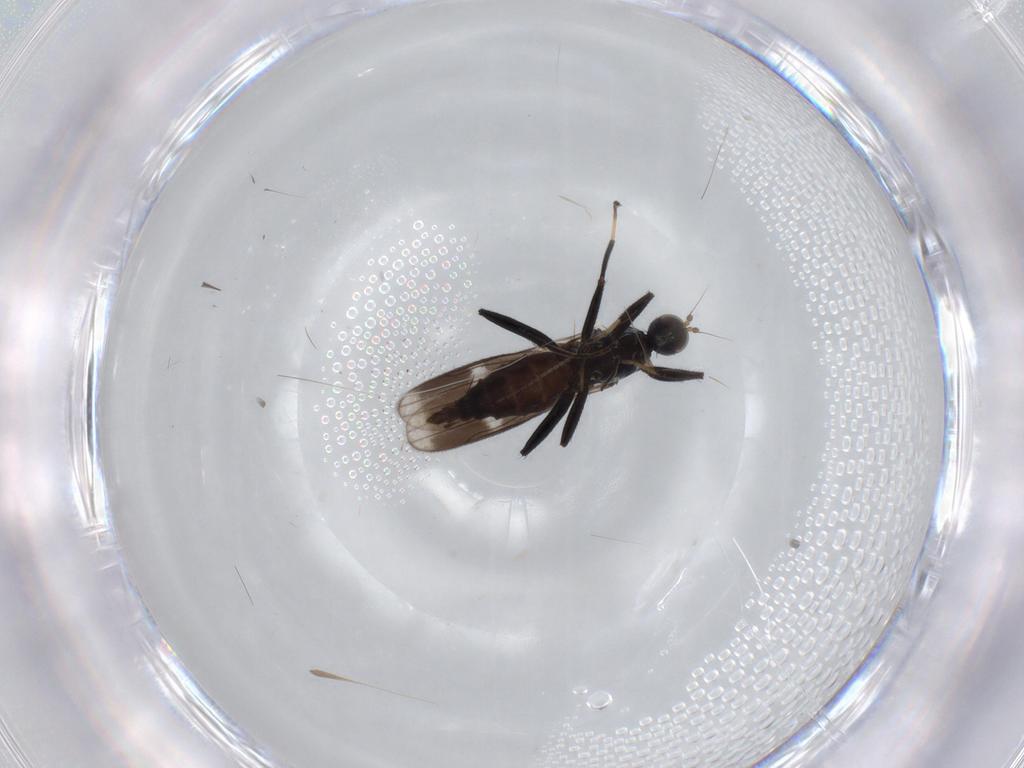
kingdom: Animalia
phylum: Arthropoda
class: Insecta
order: Diptera
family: Hybotidae
